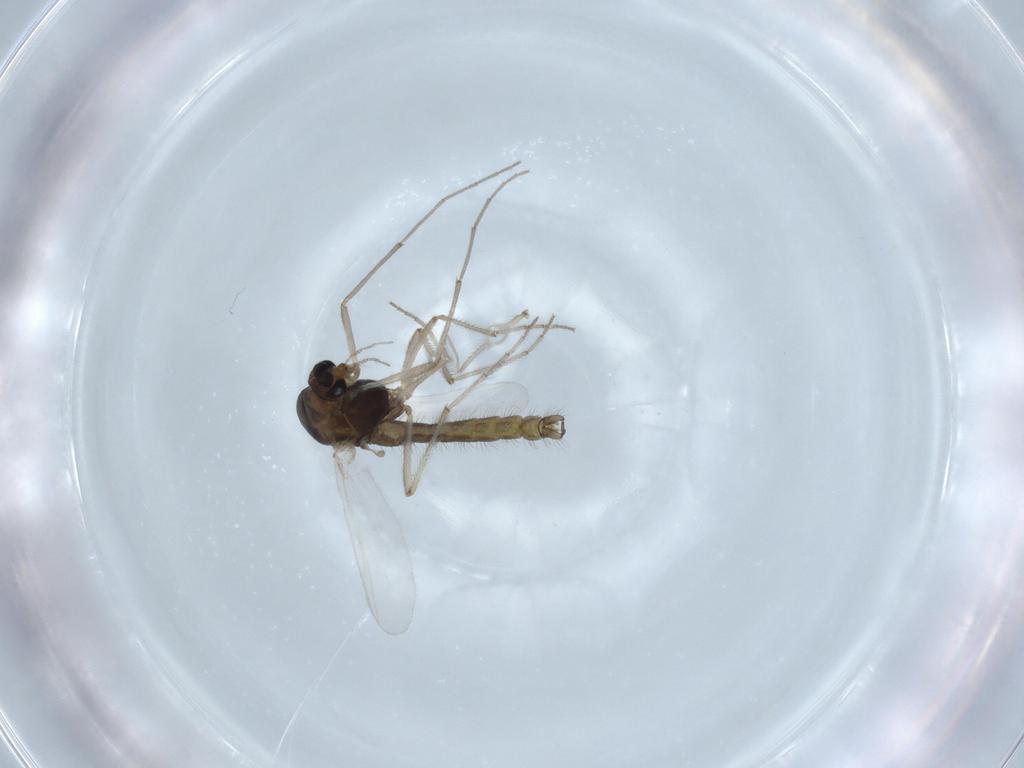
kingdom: Animalia
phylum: Arthropoda
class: Insecta
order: Diptera
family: Chironomidae
